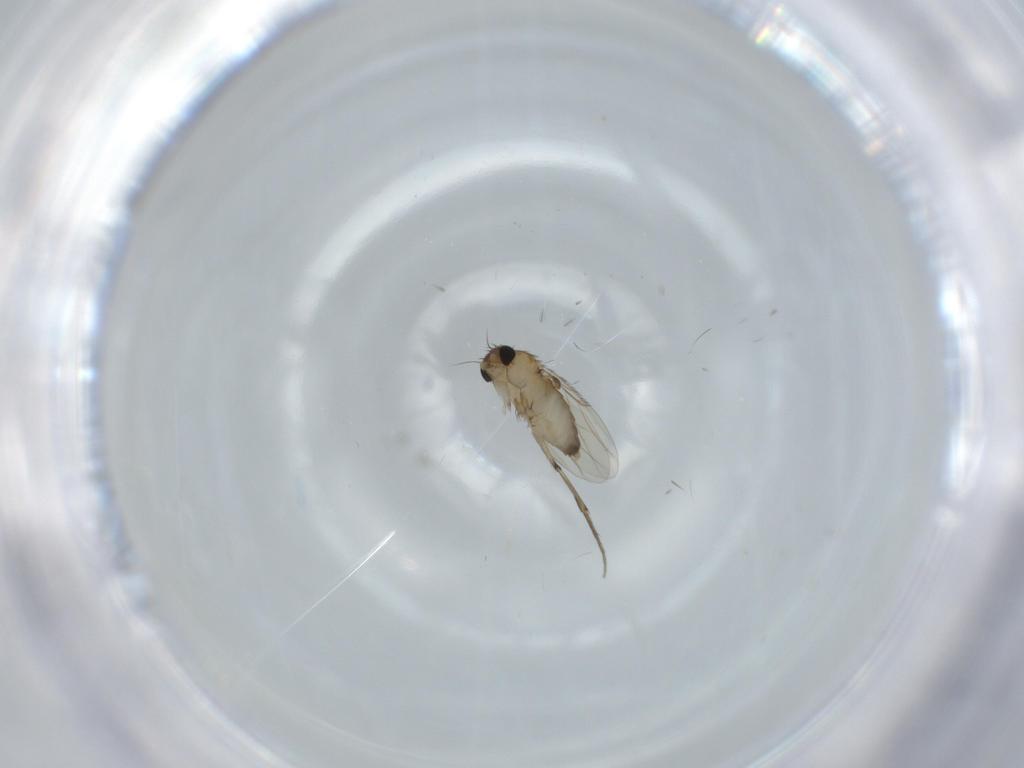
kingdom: Animalia
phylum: Arthropoda
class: Insecta
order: Diptera
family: Phoridae
